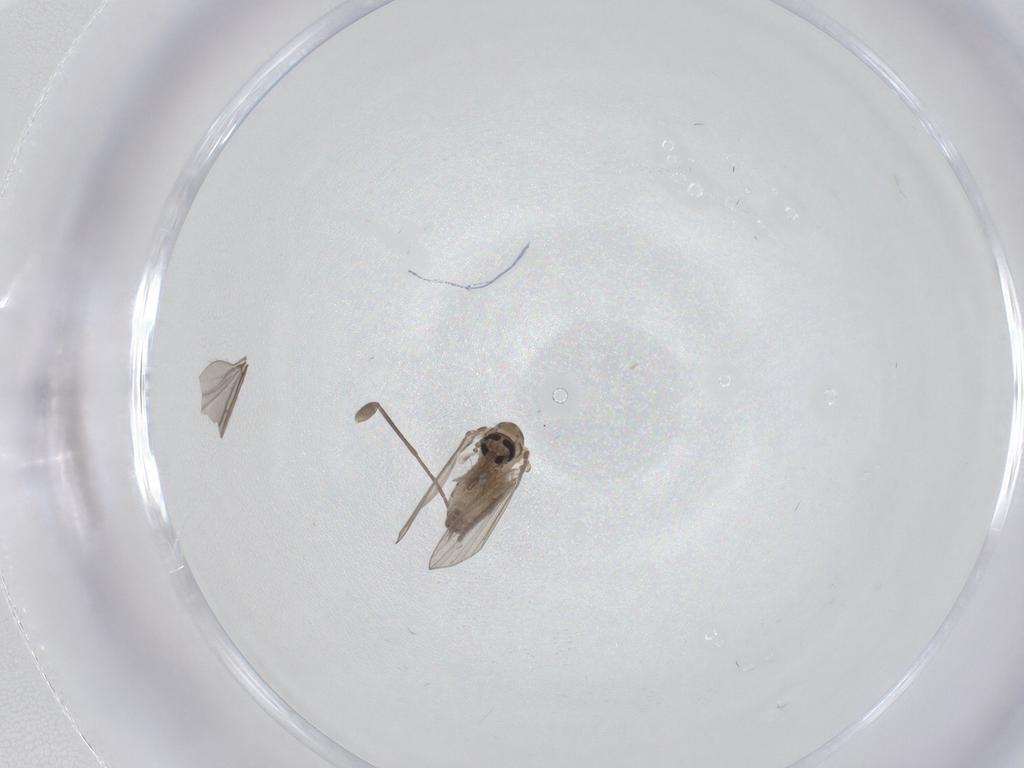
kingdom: Animalia
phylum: Arthropoda
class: Insecta
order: Diptera
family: Psychodidae
